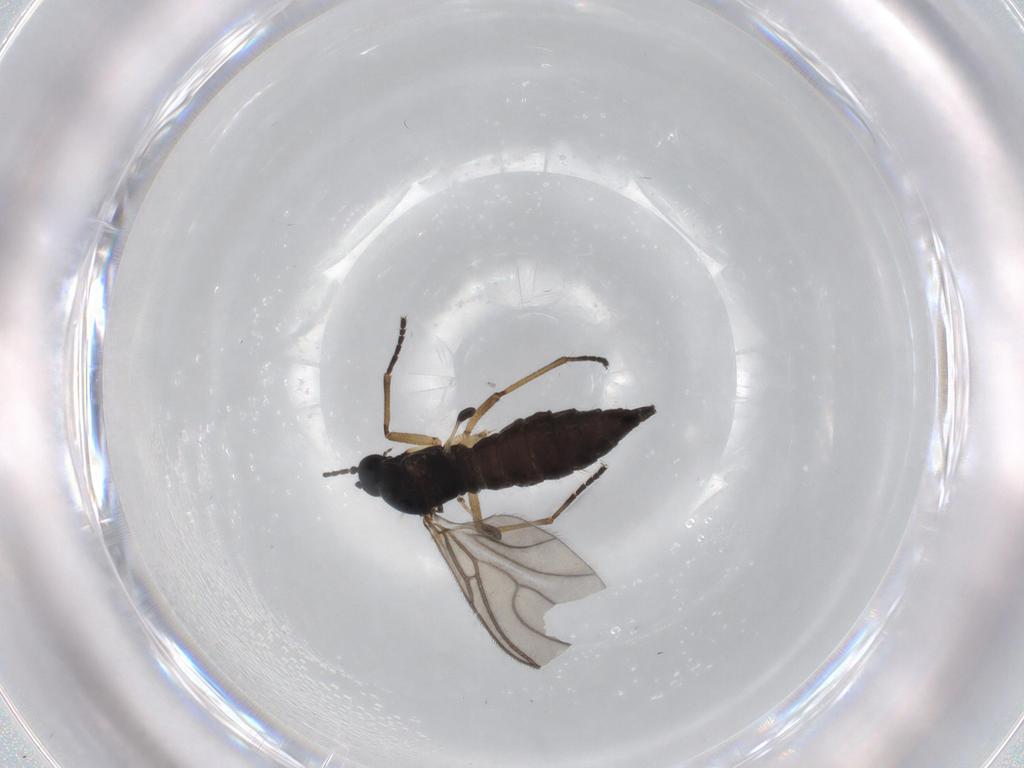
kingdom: Animalia
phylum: Arthropoda
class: Insecta
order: Diptera
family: Sciaridae
